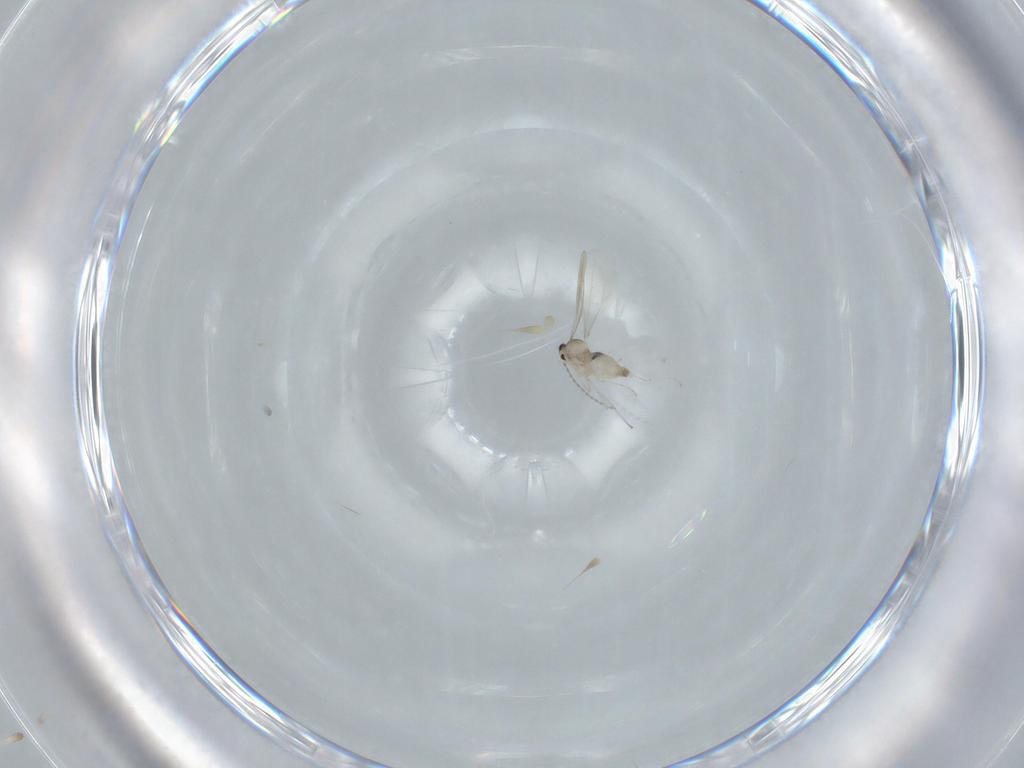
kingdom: Animalia
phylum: Arthropoda
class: Insecta
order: Diptera
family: Cecidomyiidae
